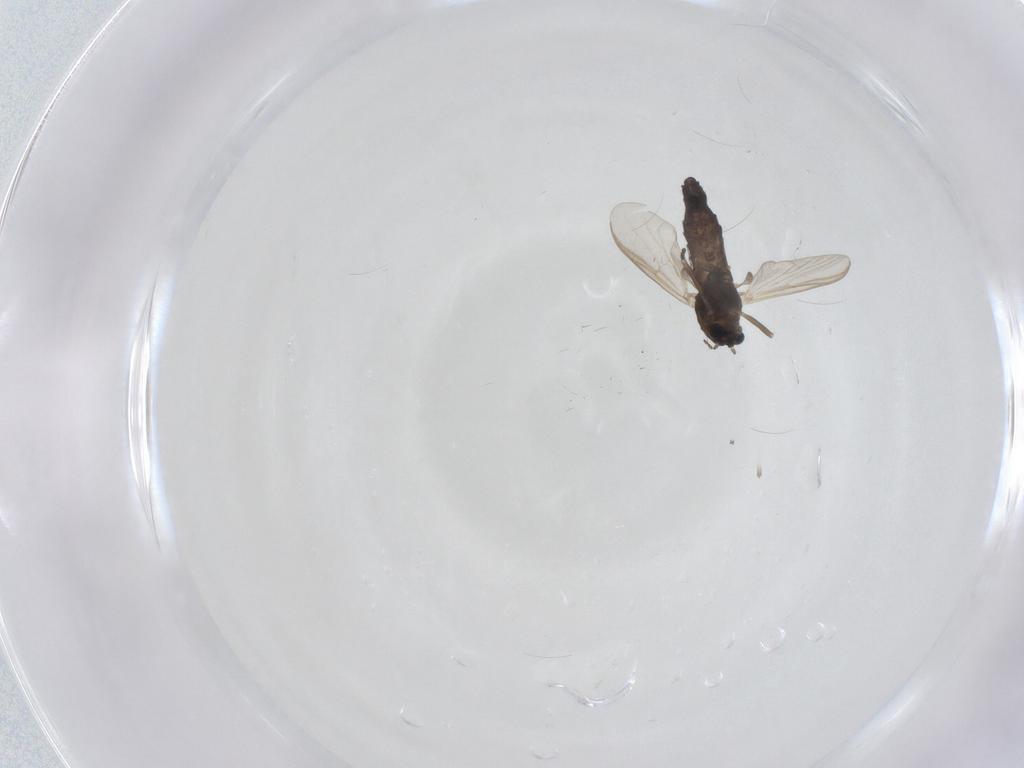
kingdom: Animalia
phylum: Arthropoda
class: Insecta
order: Diptera
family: Chironomidae
